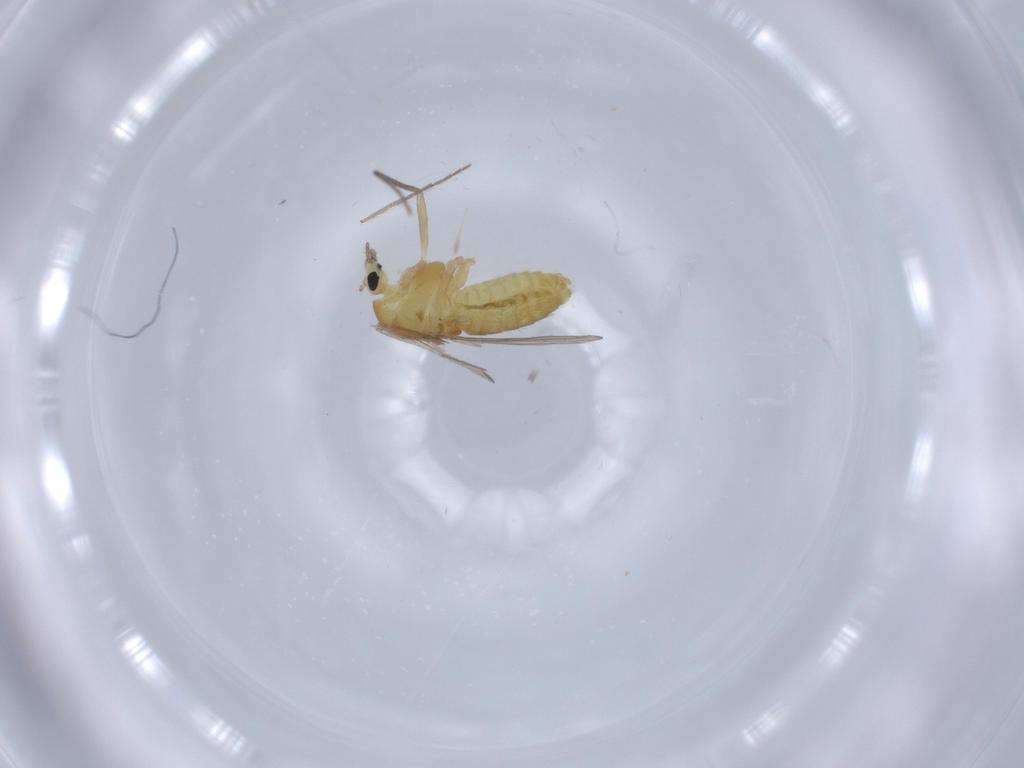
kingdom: Animalia
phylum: Arthropoda
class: Insecta
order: Diptera
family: Chironomidae
